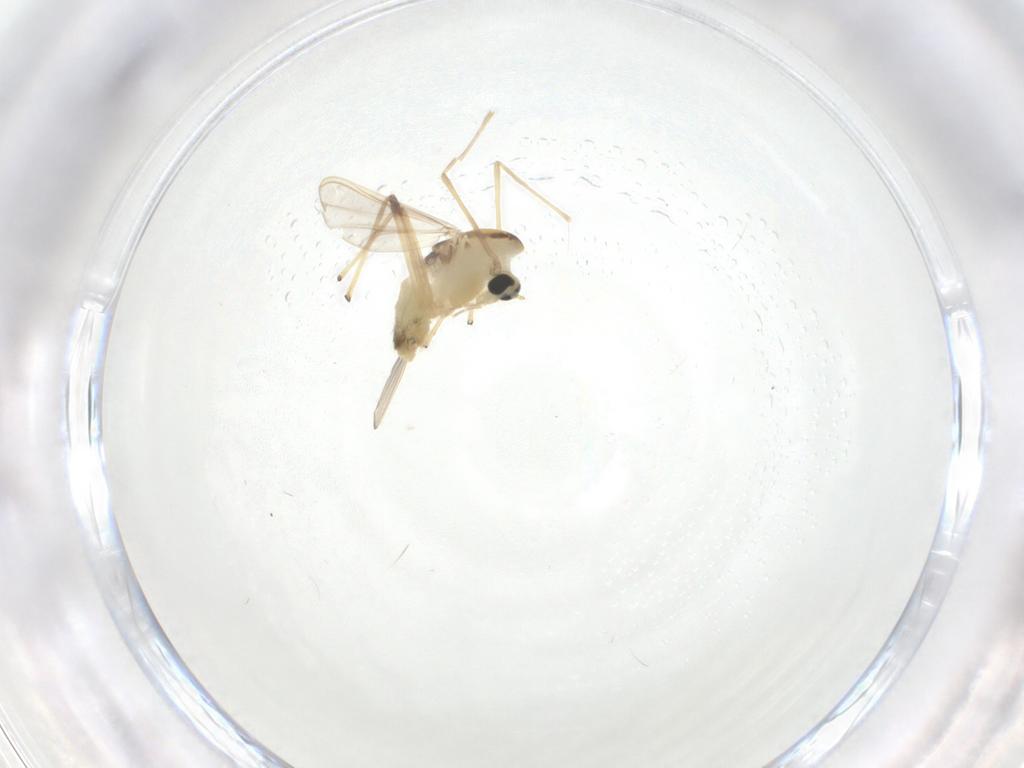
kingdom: Animalia
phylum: Arthropoda
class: Insecta
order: Diptera
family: Chironomidae
